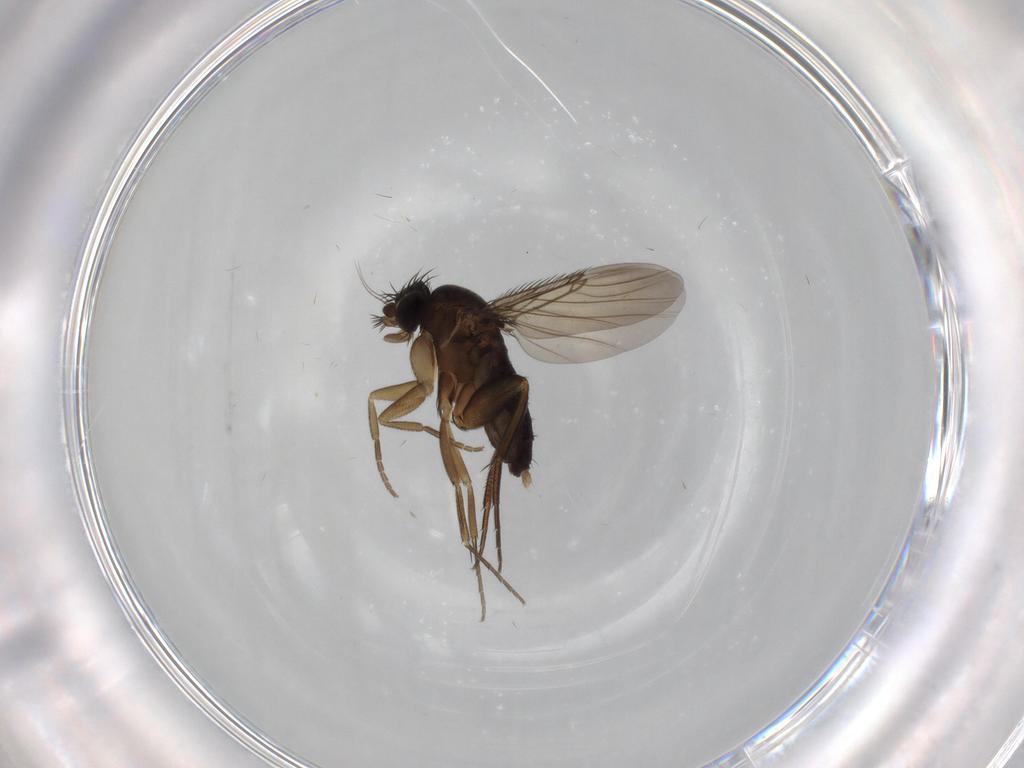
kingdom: Animalia
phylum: Arthropoda
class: Insecta
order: Diptera
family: Phoridae
